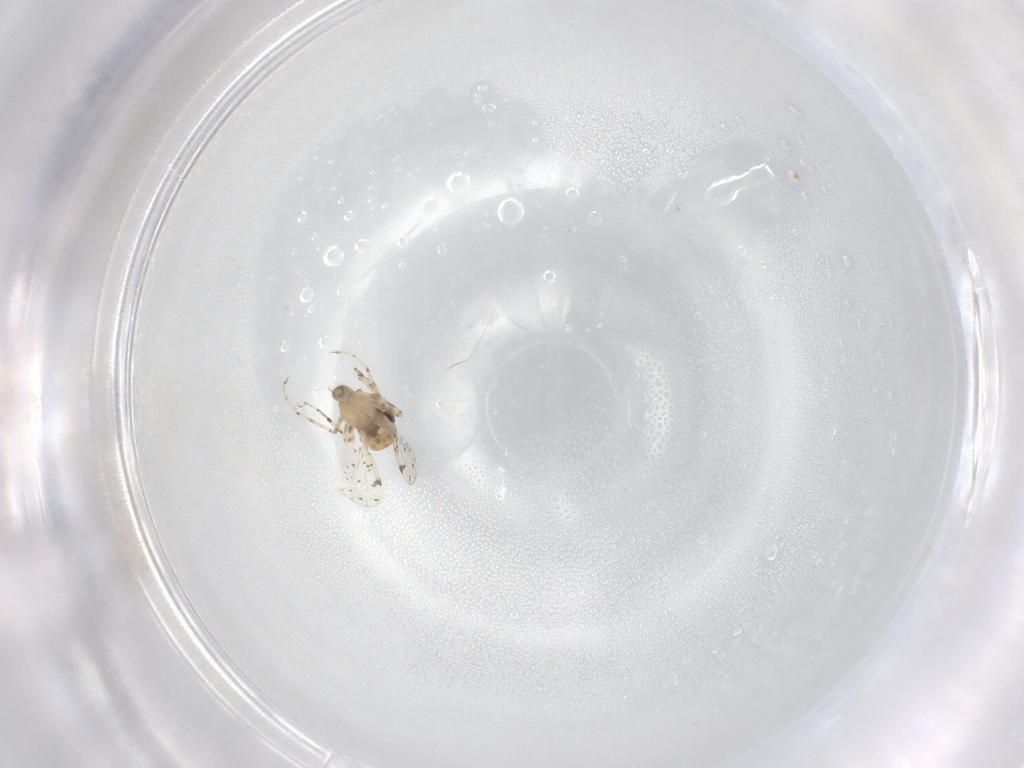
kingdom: Animalia
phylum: Arthropoda
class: Insecta
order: Diptera
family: Ceratopogonidae
